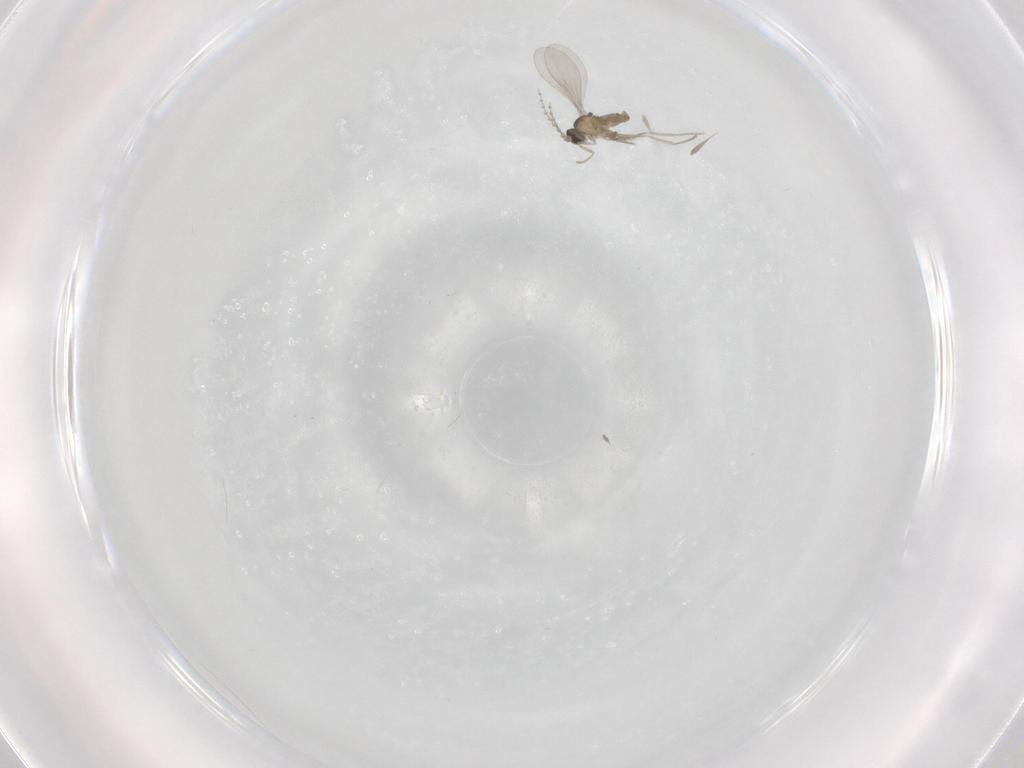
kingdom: Animalia
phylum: Arthropoda
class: Insecta
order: Diptera
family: Cecidomyiidae
